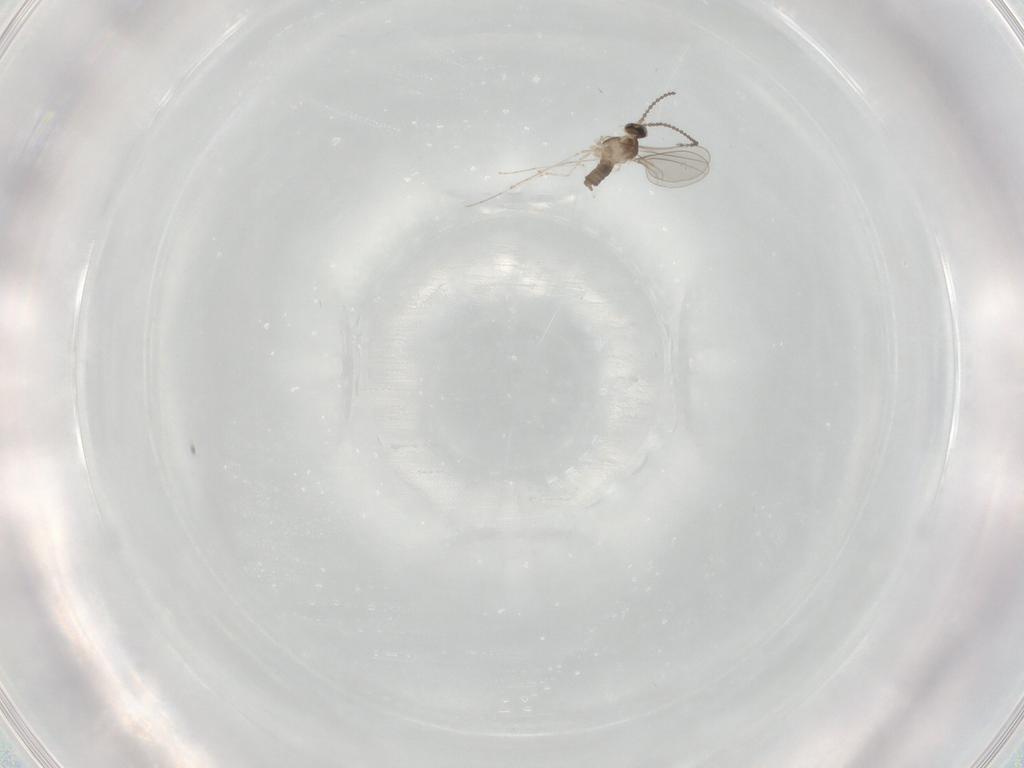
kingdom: Animalia
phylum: Arthropoda
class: Insecta
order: Diptera
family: Cecidomyiidae
